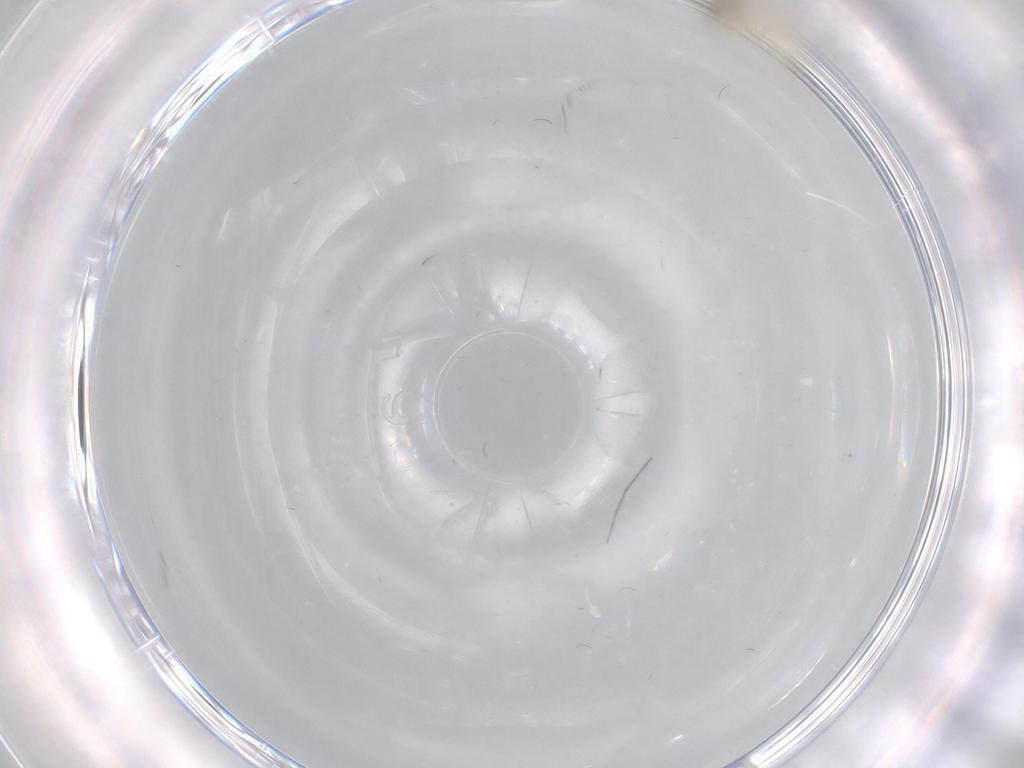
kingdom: Animalia
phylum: Arthropoda
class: Insecta
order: Diptera
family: Cecidomyiidae
